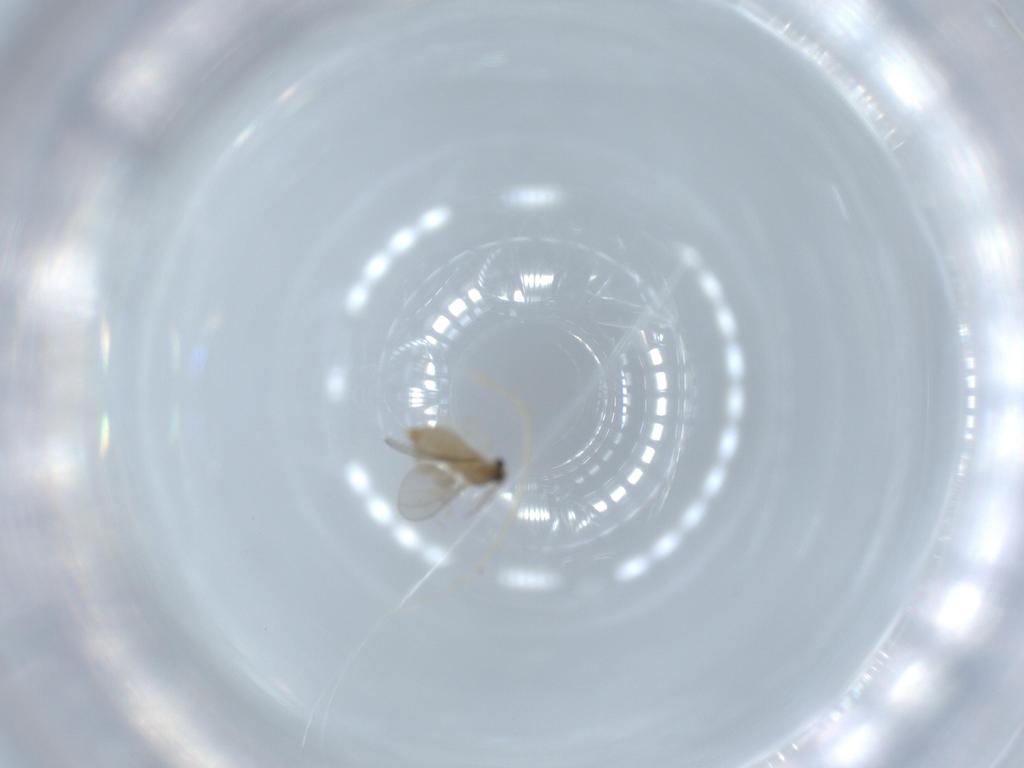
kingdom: Animalia
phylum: Arthropoda
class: Insecta
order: Diptera
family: Cecidomyiidae
